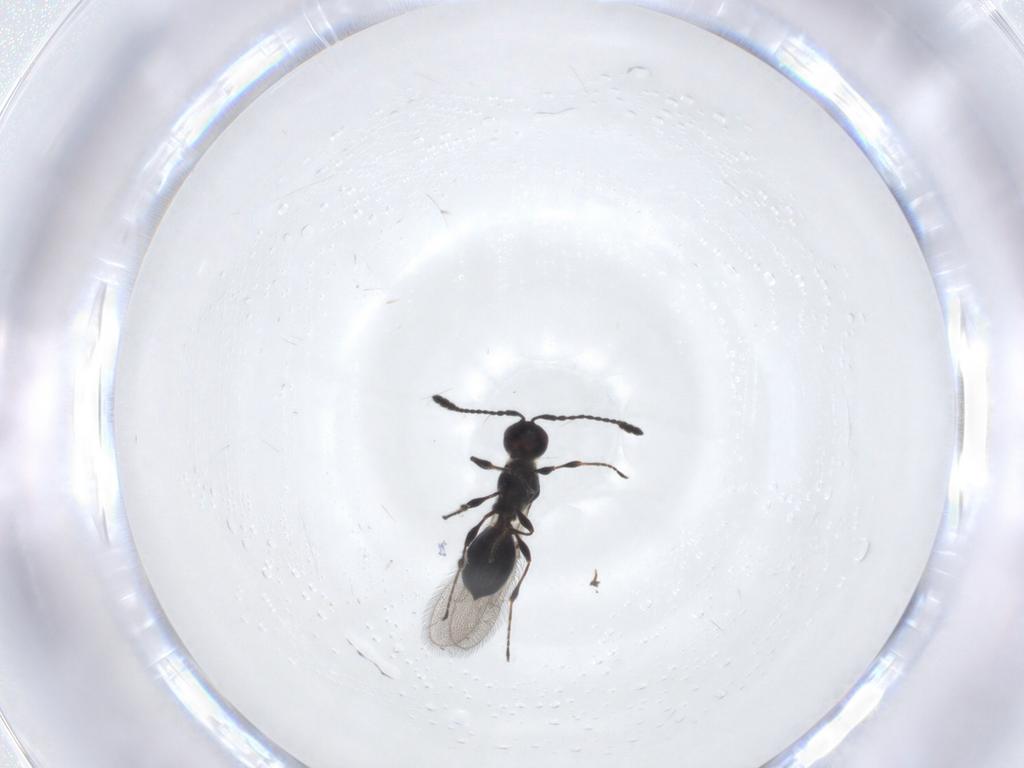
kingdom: Animalia
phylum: Arthropoda
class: Insecta
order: Hymenoptera
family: Diapriidae
